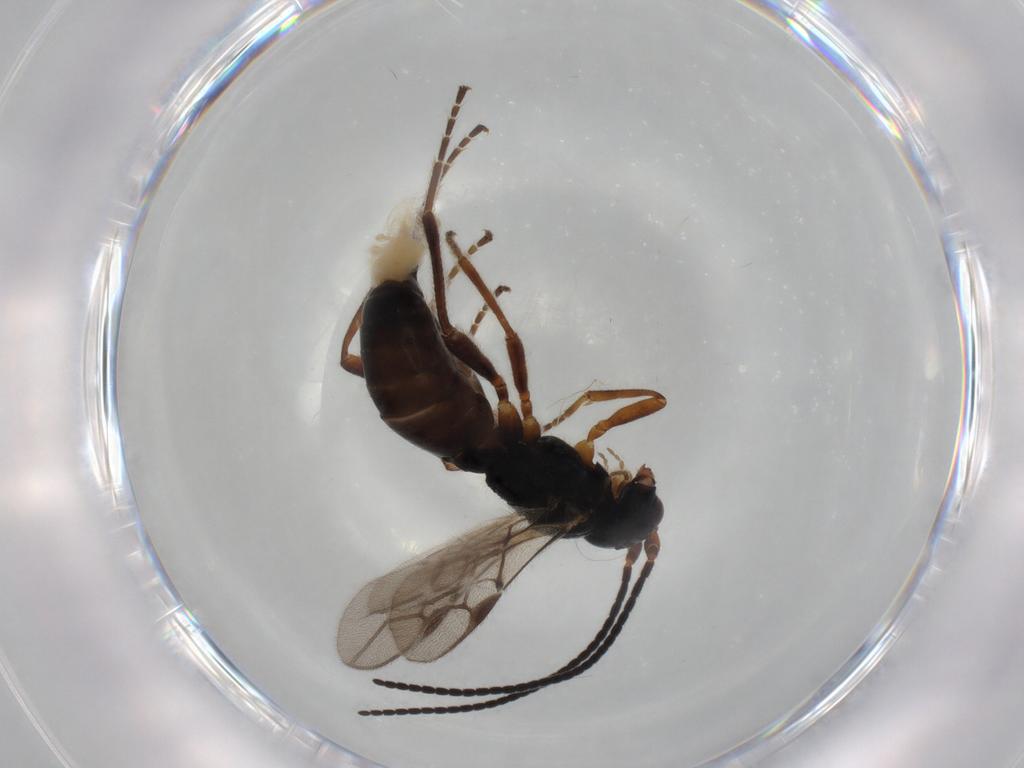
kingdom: Animalia
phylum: Arthropoda
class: Insecta
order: Hymenoptera
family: Braconidae
